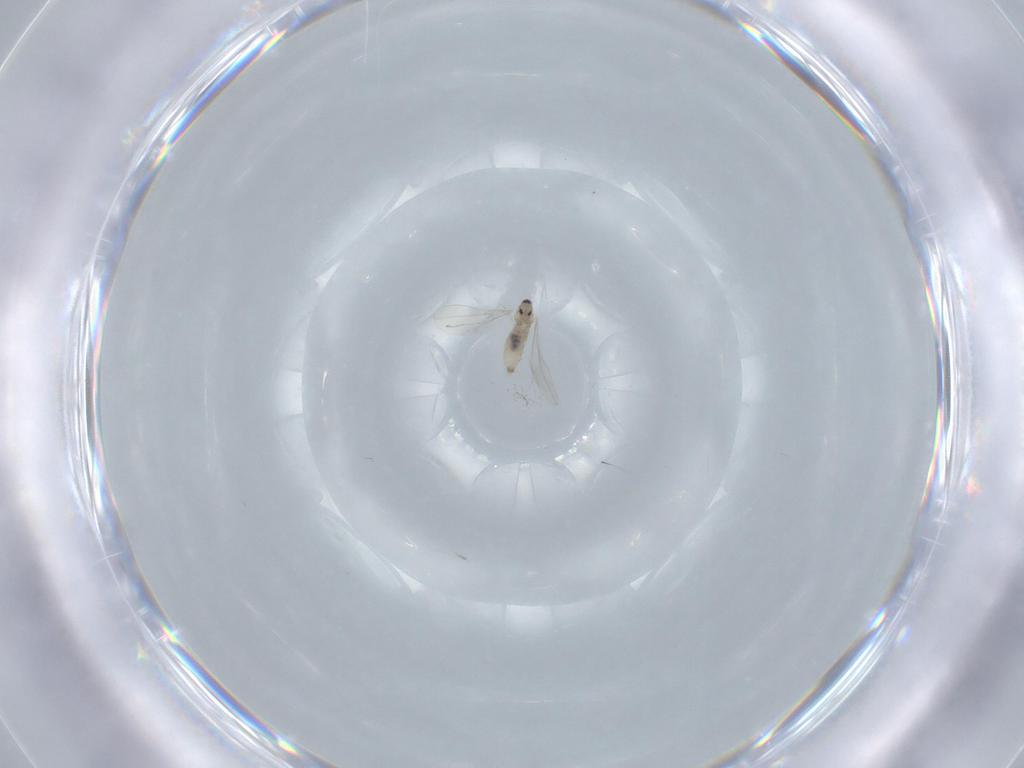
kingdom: Animalia
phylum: Arthropoda
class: Insecta
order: Diptera
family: Cecidomyiidae
